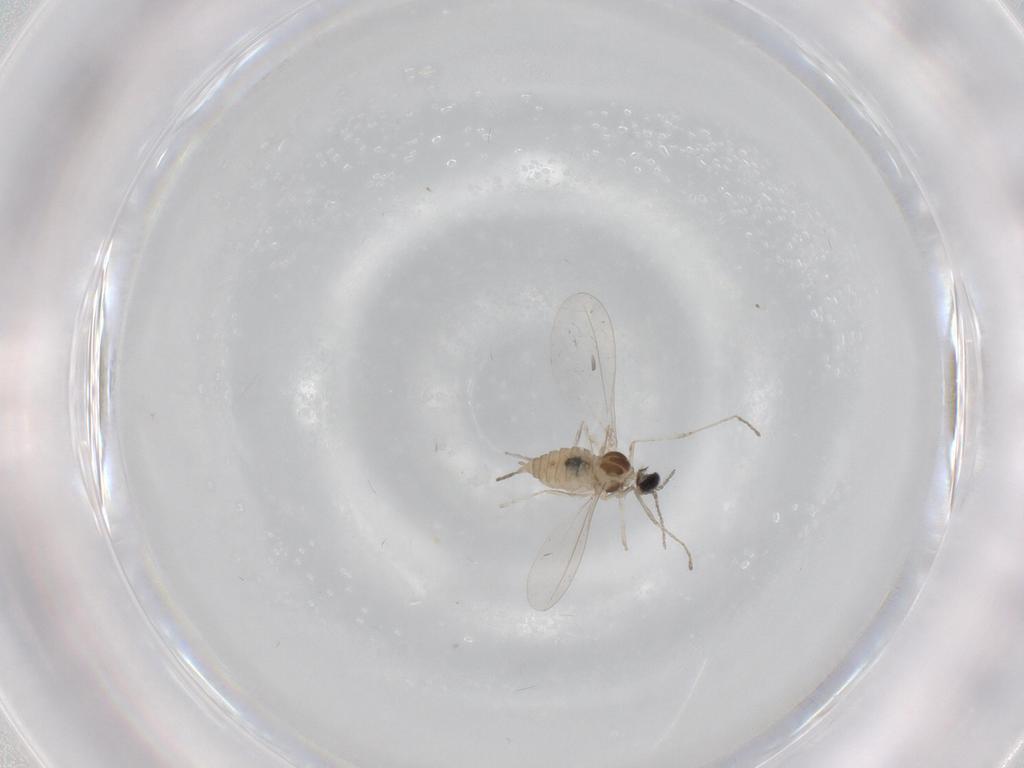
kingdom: Animalia
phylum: Arthropoda
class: Insecta
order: Diptera
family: Cecidomyiidae
